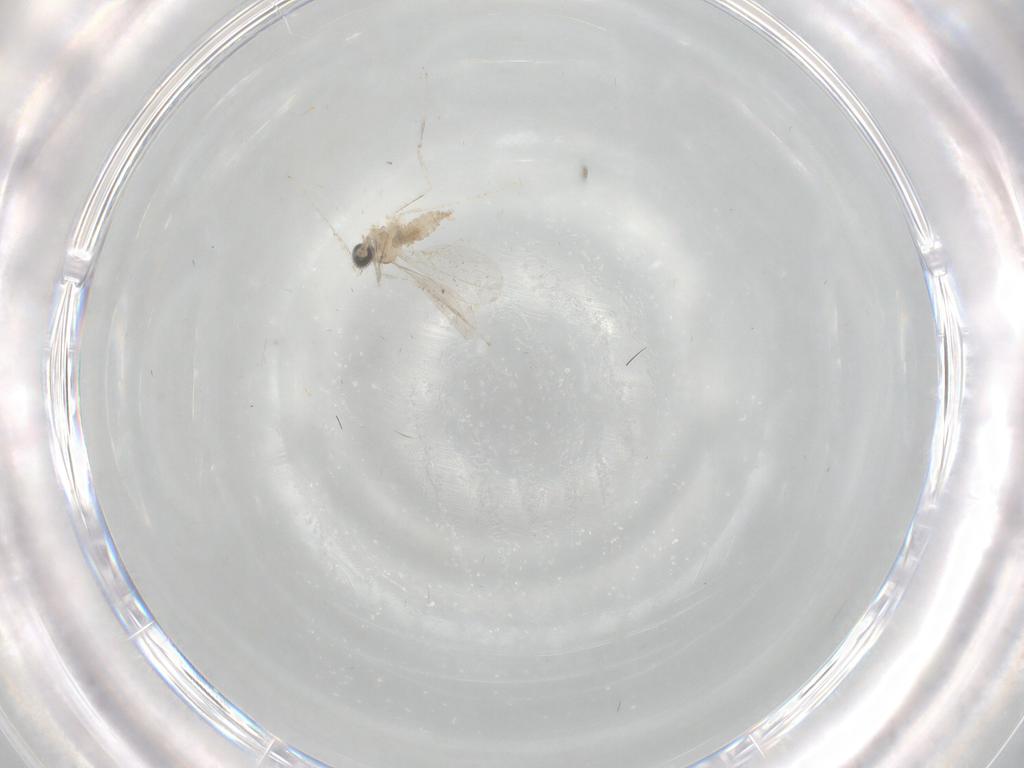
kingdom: Animalia
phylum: Arthropoda
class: Insecta
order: Diptera
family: Cecidomyiidae
